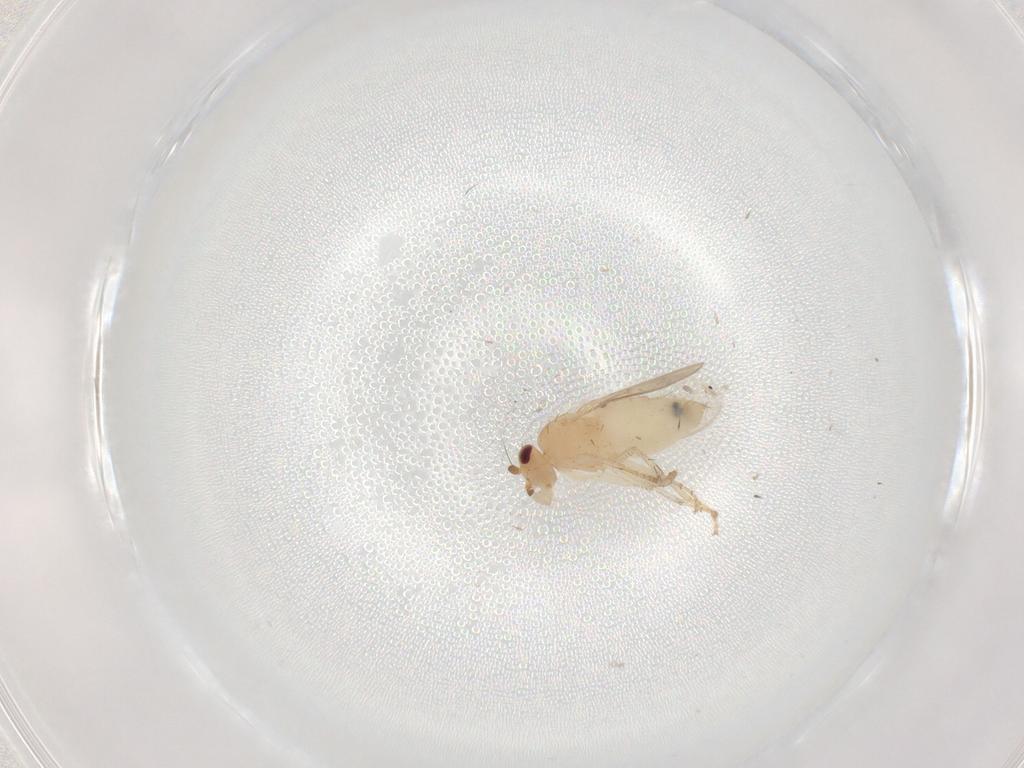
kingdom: Animalia
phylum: Arthropoda
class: Insecta
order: Diptera
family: Sphaeroceridae
